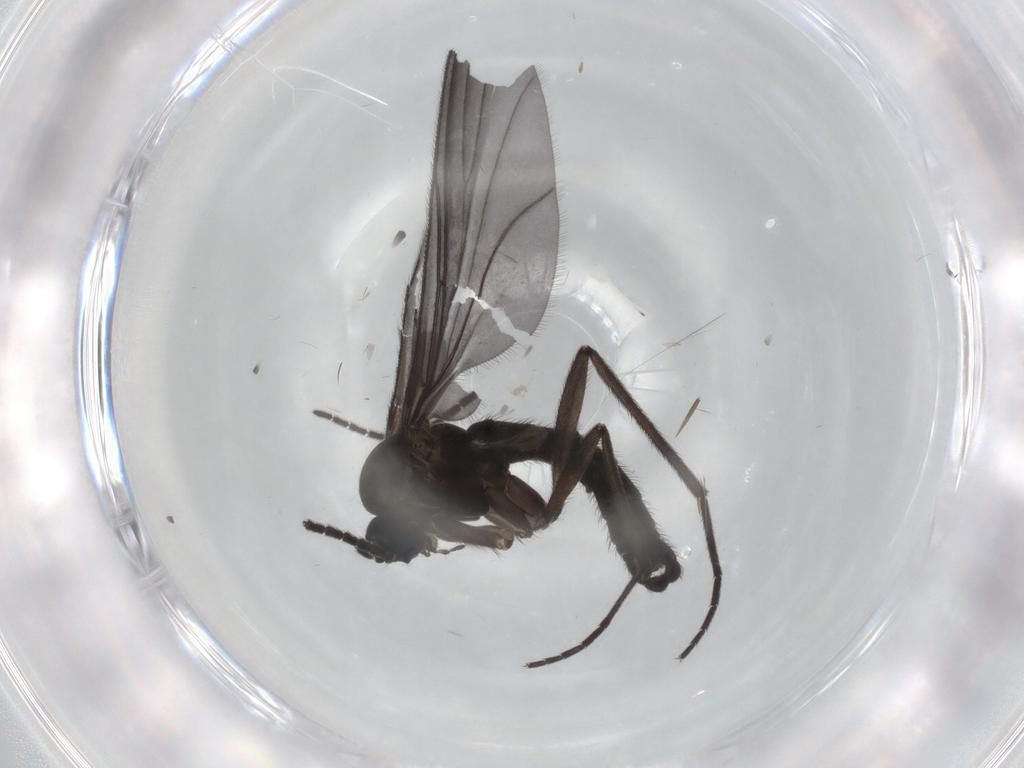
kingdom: Animalia
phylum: Arthropoda
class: Insecta
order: Diptera
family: Sciaridae
